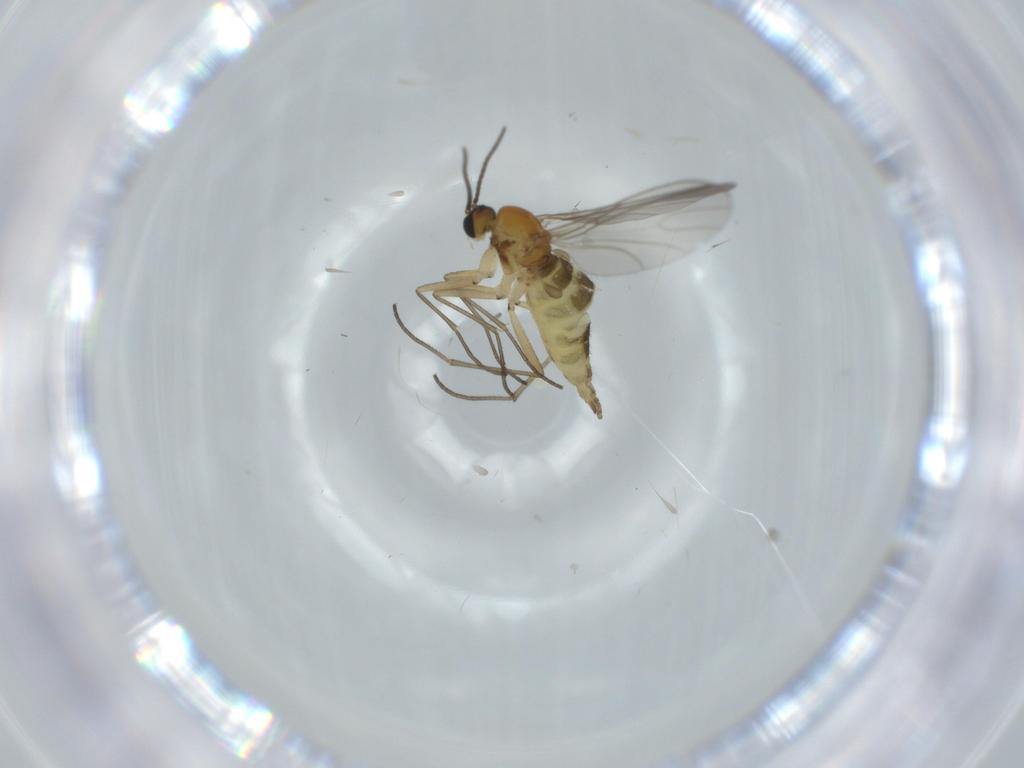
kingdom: Animalia
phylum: Arthropoda
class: Insecta
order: Diptera
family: Sciaridae
